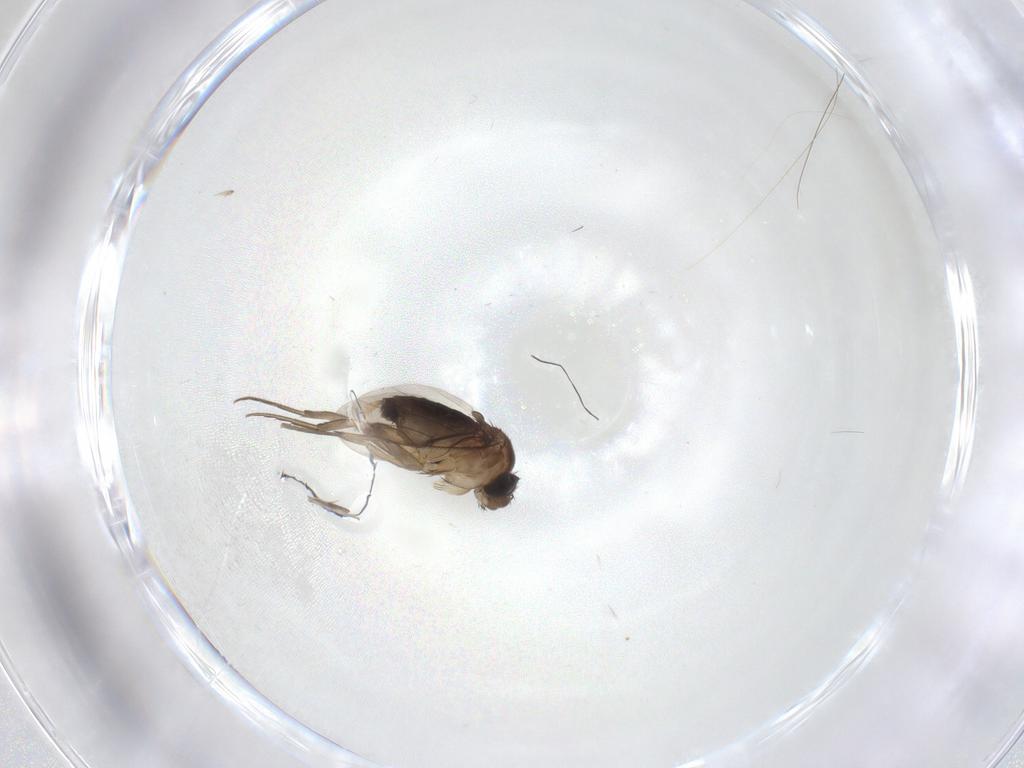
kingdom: Animalia
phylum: Arthropoda
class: Insecta
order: Diptera
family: Phoridae
